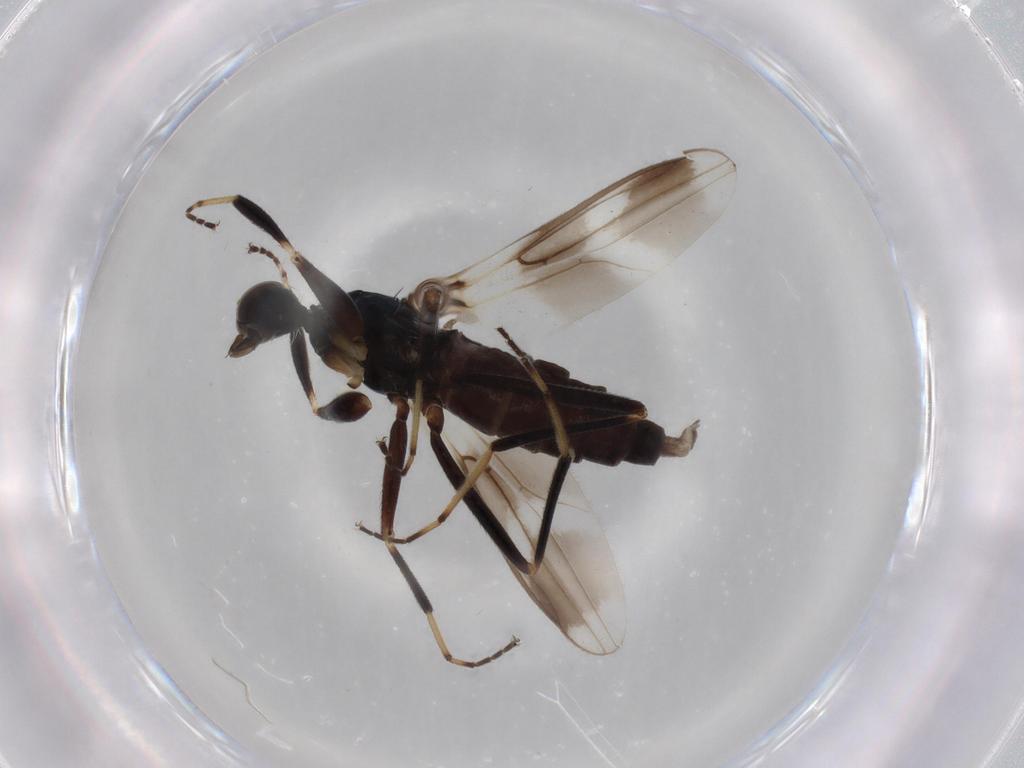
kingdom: Animalia
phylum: Arthropoda
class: Insecta
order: Diptera
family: Hybotidae
